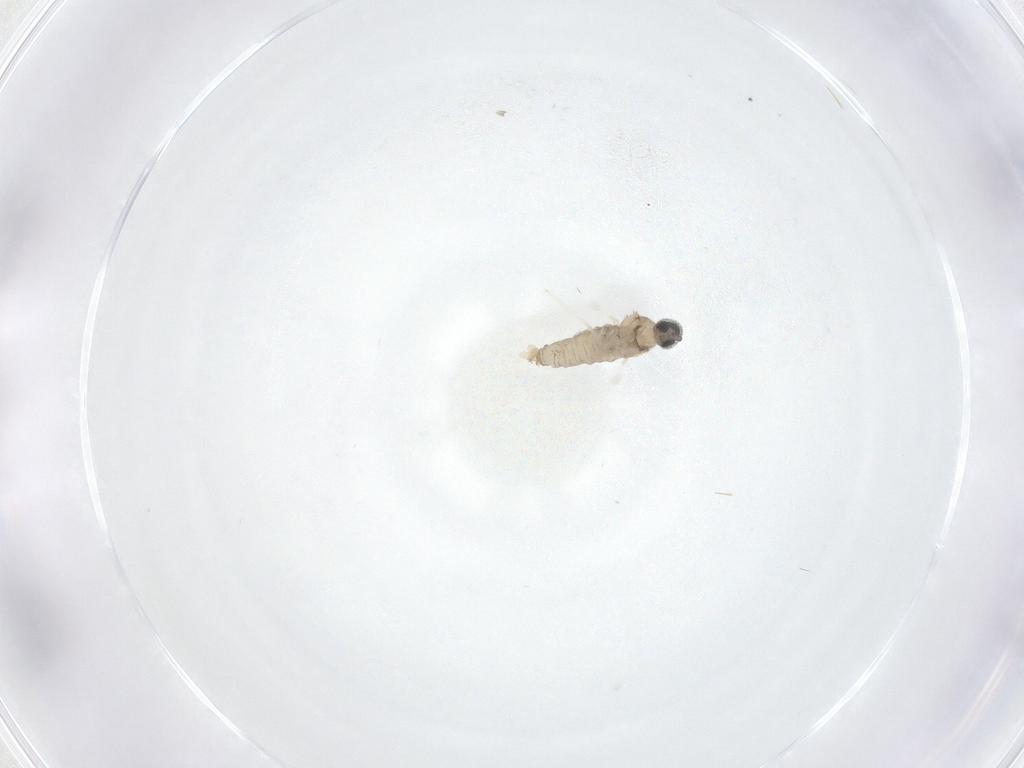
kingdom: Animalia
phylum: Arthropoda
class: Insecta
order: Diptera
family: Cecidomyiidae
